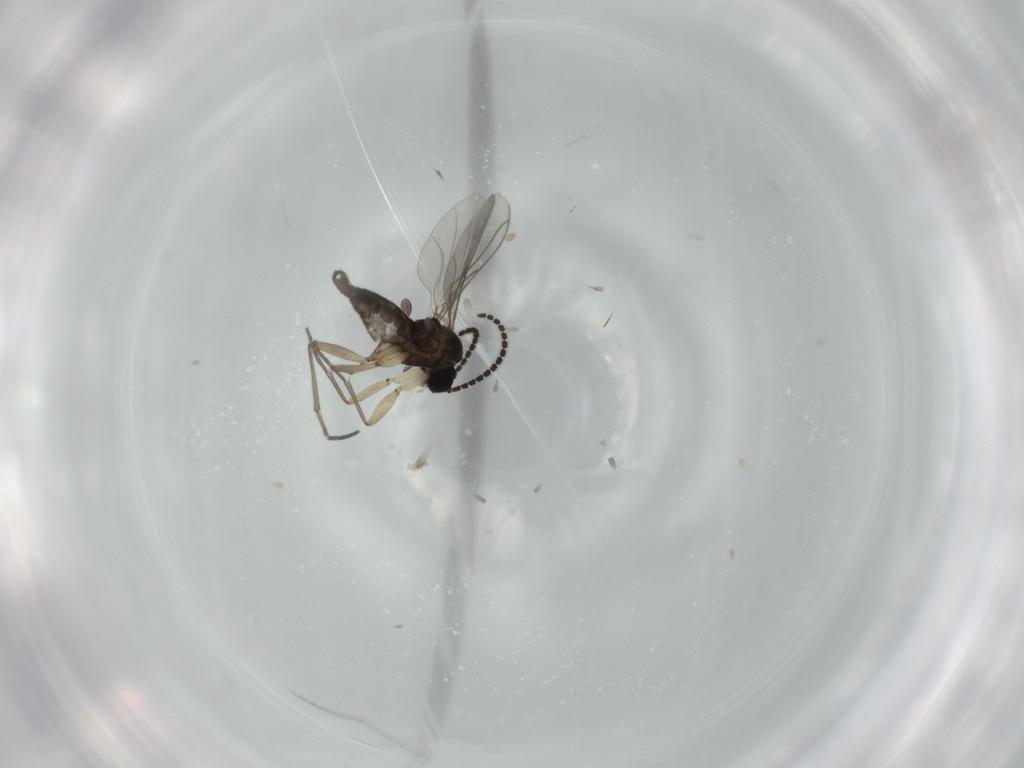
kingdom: Animalia
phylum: Arthropoda
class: Insecta
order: Diptera
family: Sciaridae
